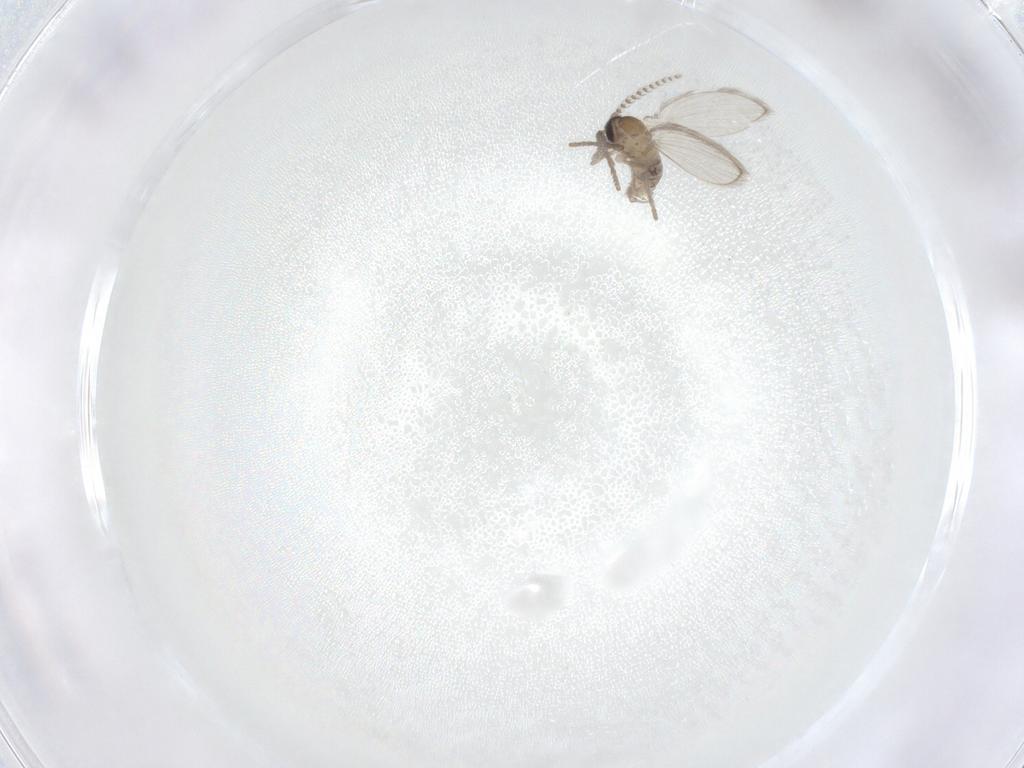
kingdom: Animalia
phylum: Arthropoda
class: Insecta
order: Diptera
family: Psychodidae
